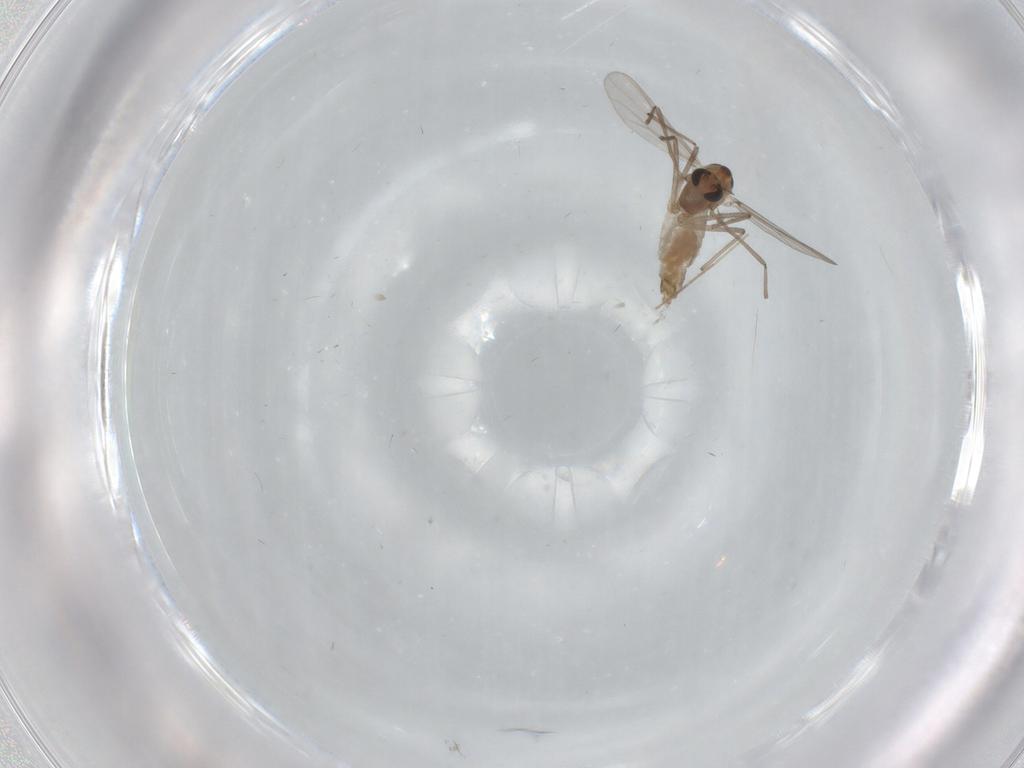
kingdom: Animalia
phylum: Arthropoda
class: Insecta
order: Diptera
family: Chironomidae
